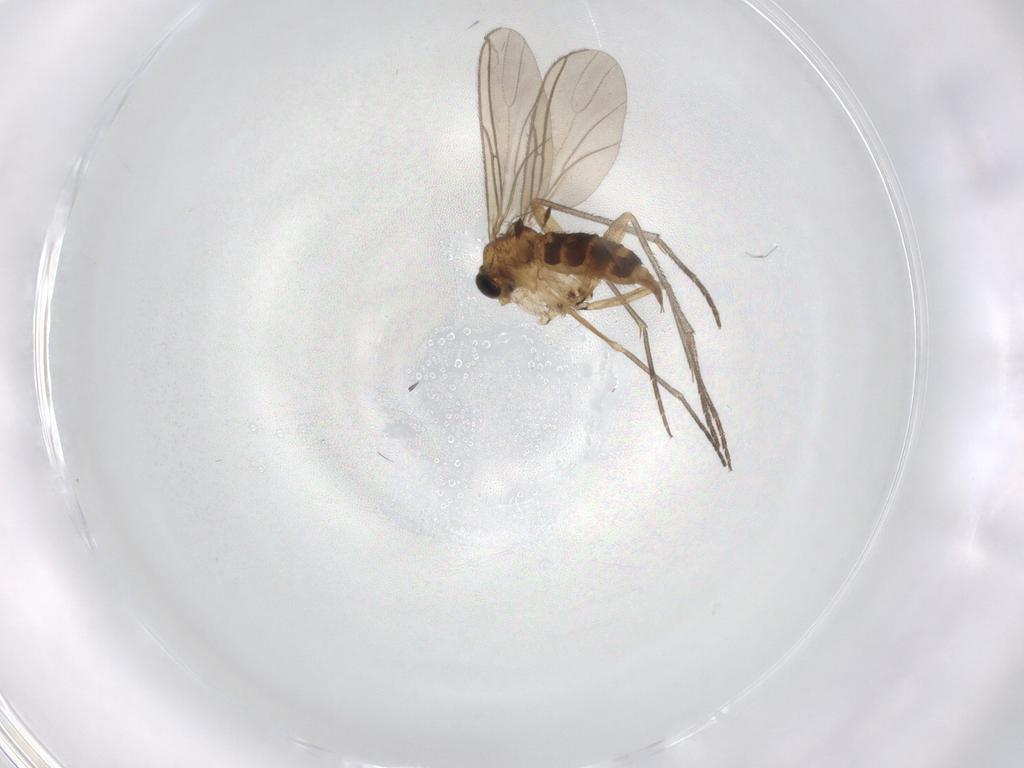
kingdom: Animalia
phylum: Arthropoda
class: Insecta
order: Diptera
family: Sciaridae
